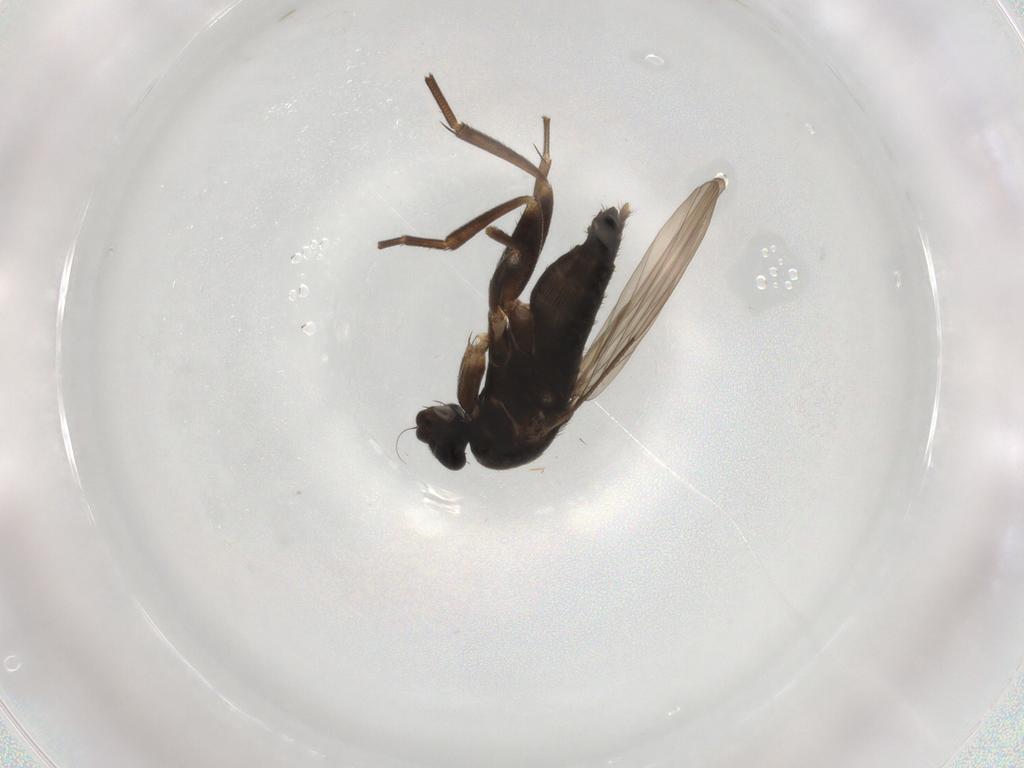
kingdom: Animalia
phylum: Arthropoda
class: Insecta
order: Diptera
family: Phoridae
